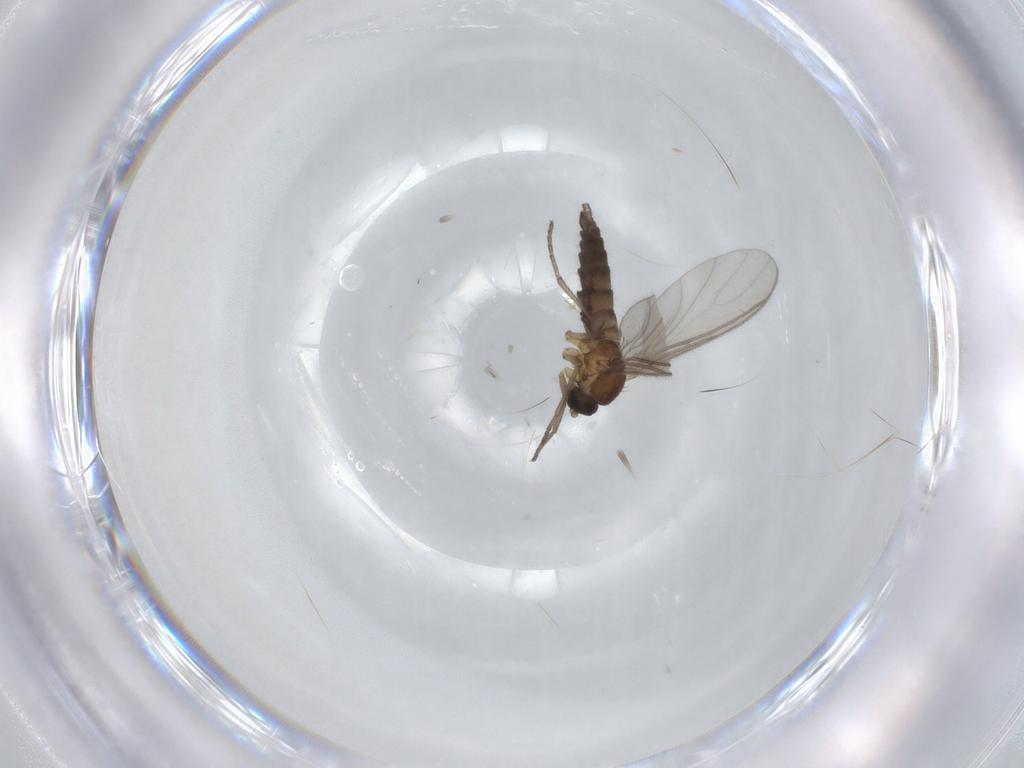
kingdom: Animalia
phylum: Arthropoda
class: Insecta
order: Diptera
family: Sciaridae
